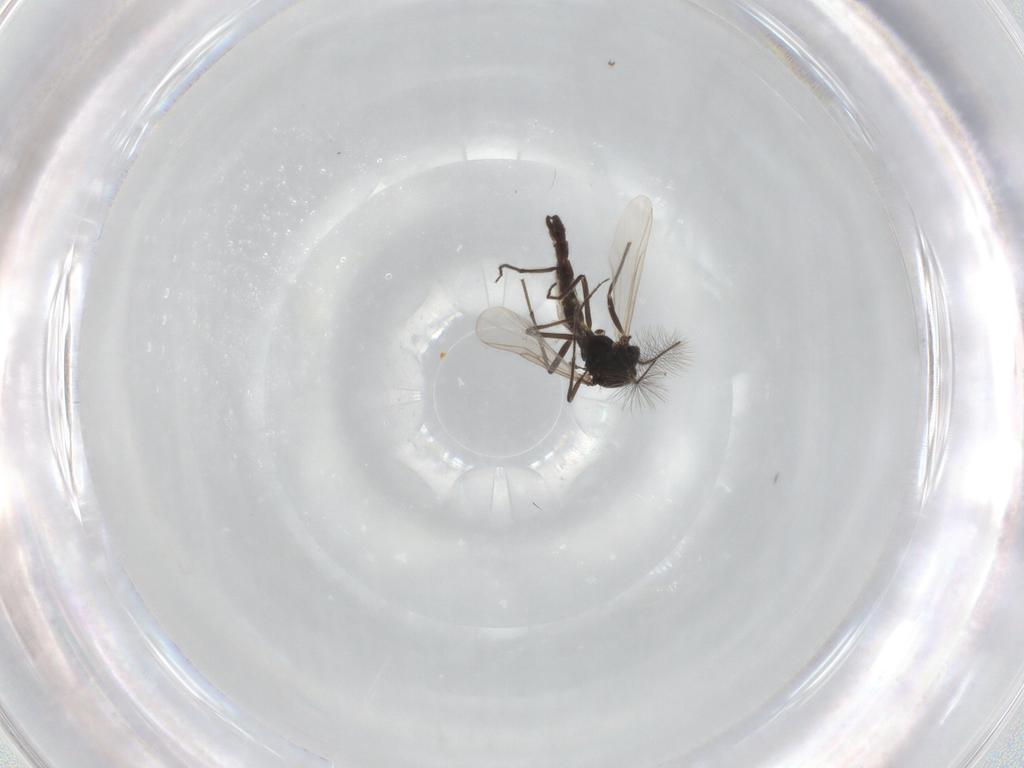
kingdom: Animalia
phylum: Arthropoda
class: Insecta
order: Diptera
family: Chironomidae
